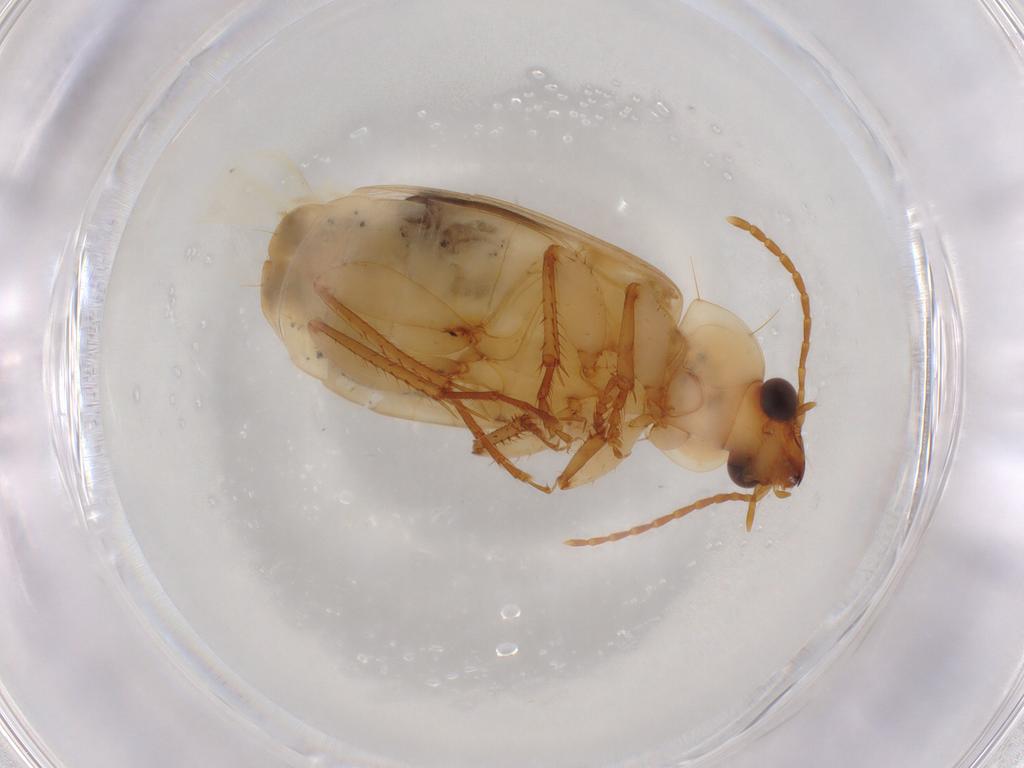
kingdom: Animalia
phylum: Arthropoda
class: Insecta
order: Coleoptera
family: Carabidae
